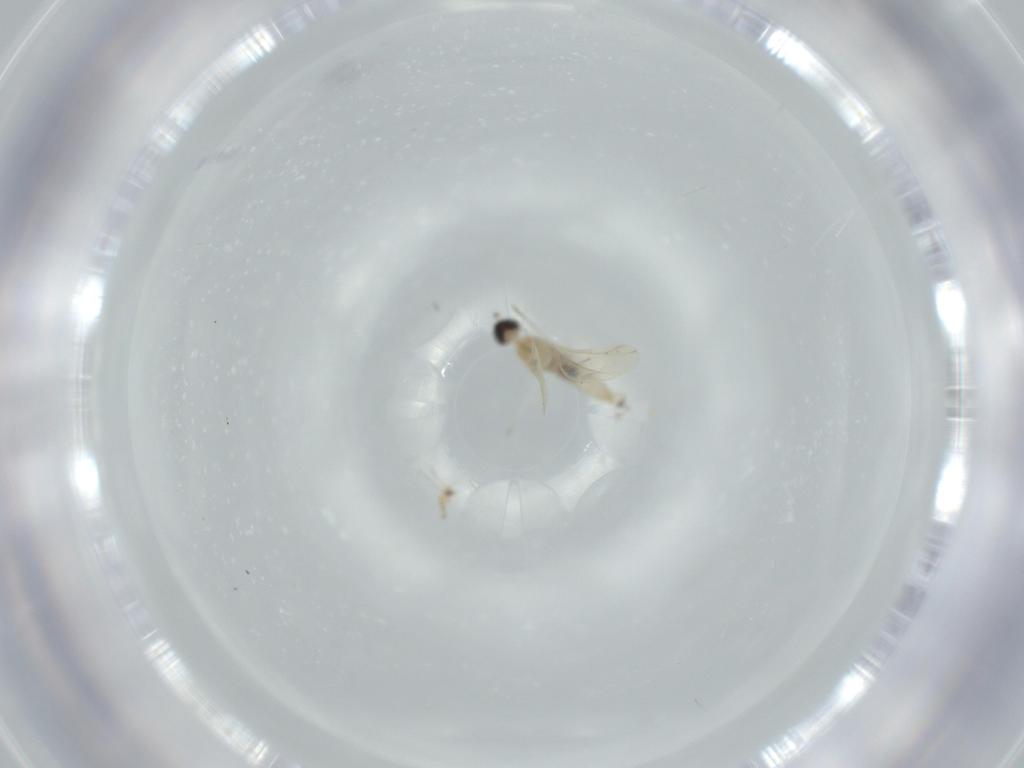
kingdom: Animalia
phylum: Arthropoda
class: Insecta
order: Diptera
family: Cecidomyiidae
